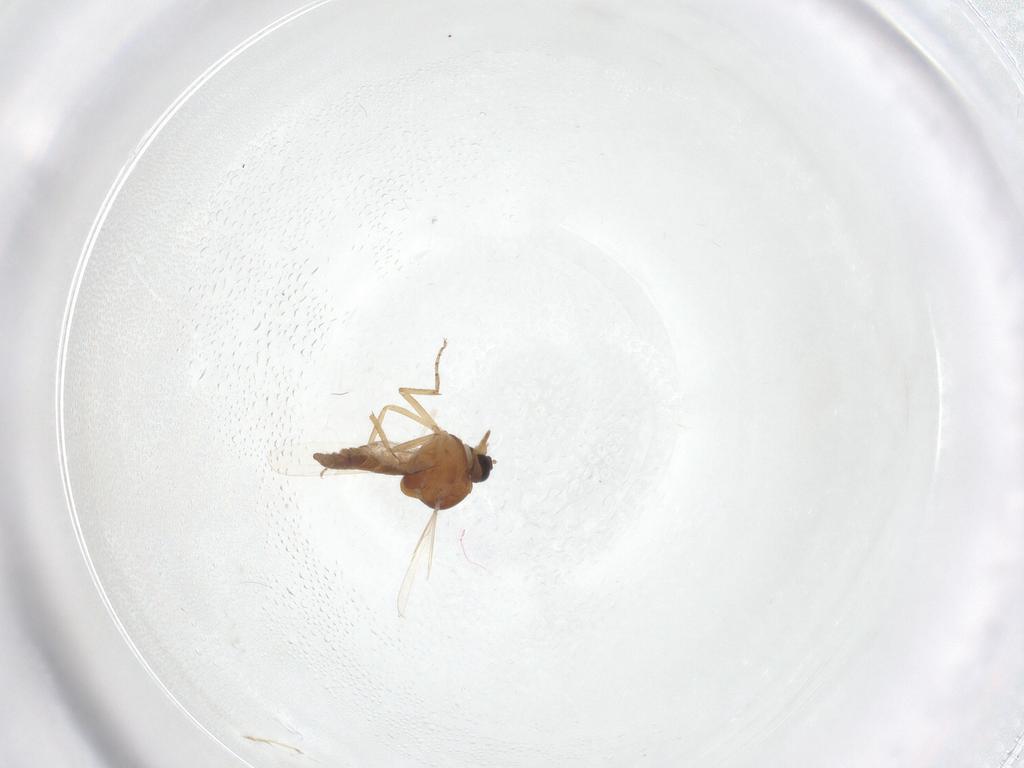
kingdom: Animalia
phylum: Arthropoda
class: Insecta
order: Diptera
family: Ceratopogonidae
